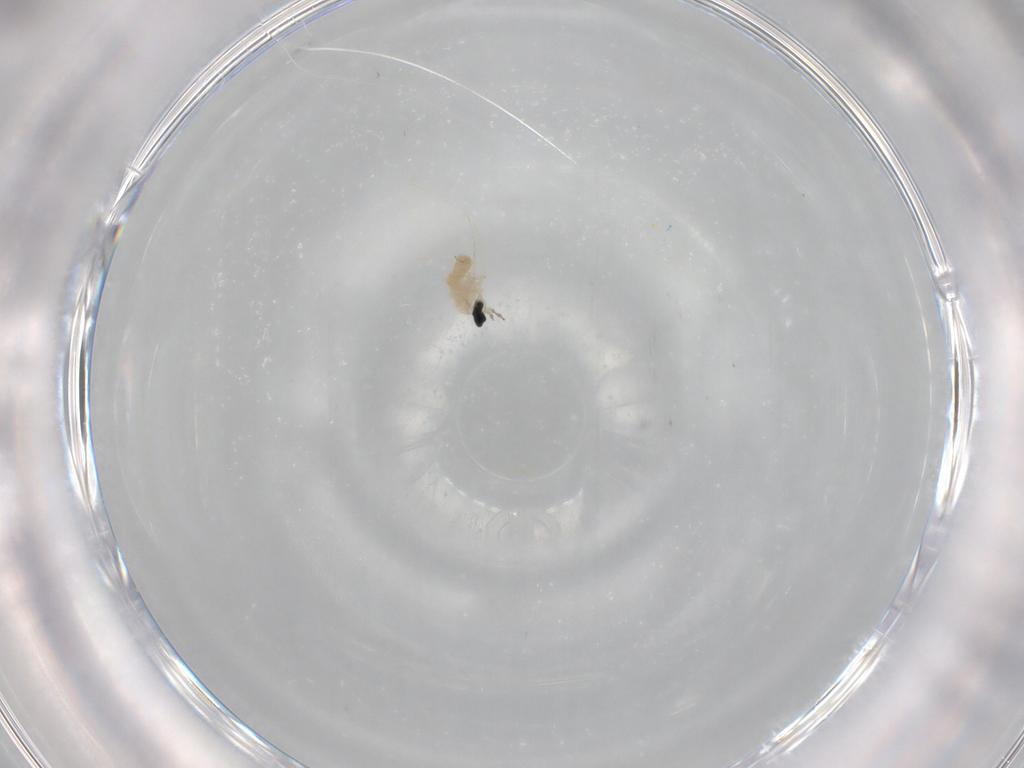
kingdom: Animalia
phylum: Arthropoda
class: Insecta
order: Diptera
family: Cecidomyiidae
